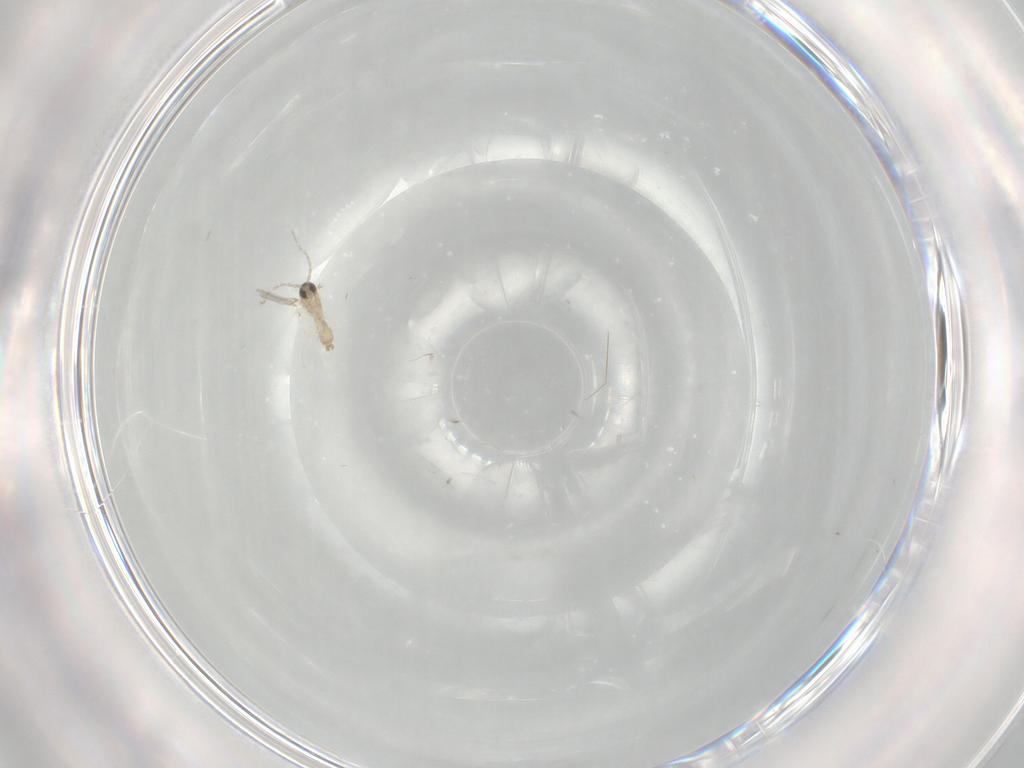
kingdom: Animalia
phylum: Arthropoda
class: Insecta
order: Diptera
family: Cecidomyiidae
